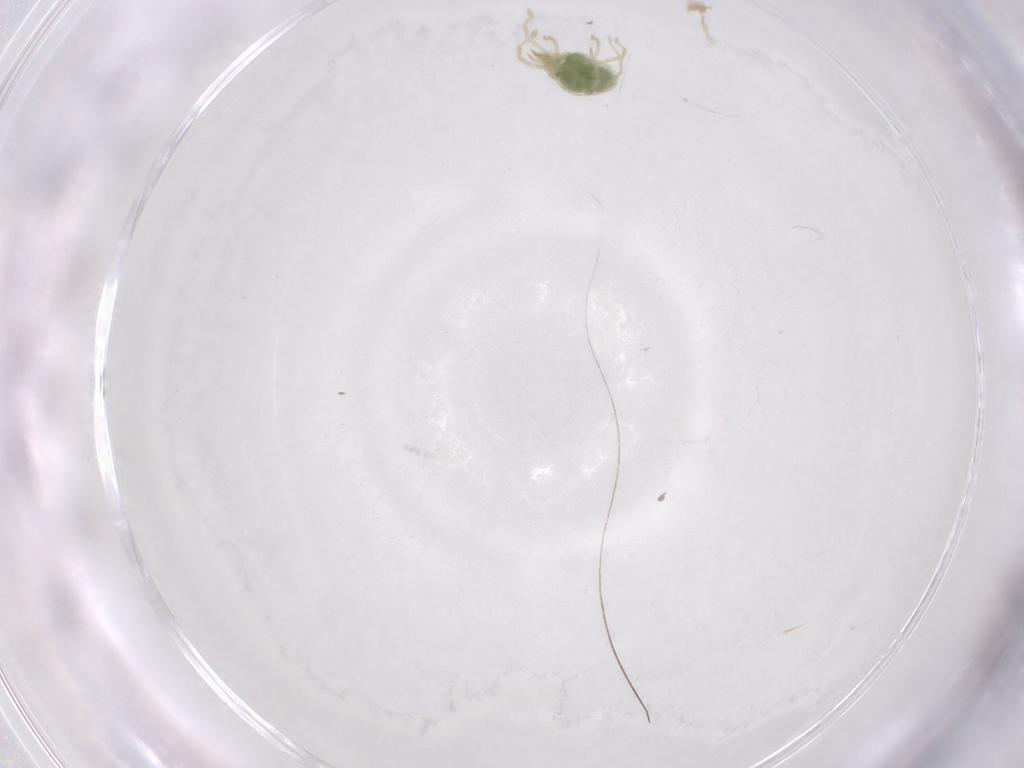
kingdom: Animalia
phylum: Arthropoda
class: Arachnida
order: Trombidiformes
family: Erythraeidae
